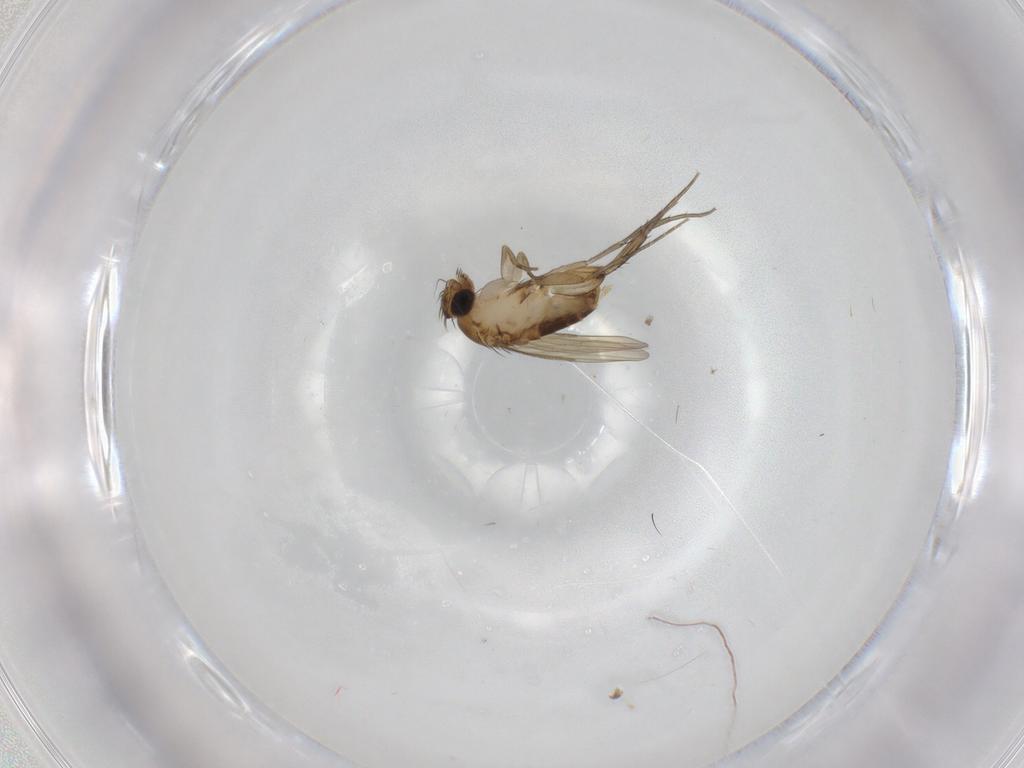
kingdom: Animalia
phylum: Arthropoda
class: Insecta
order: Diptera
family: Phoridae
